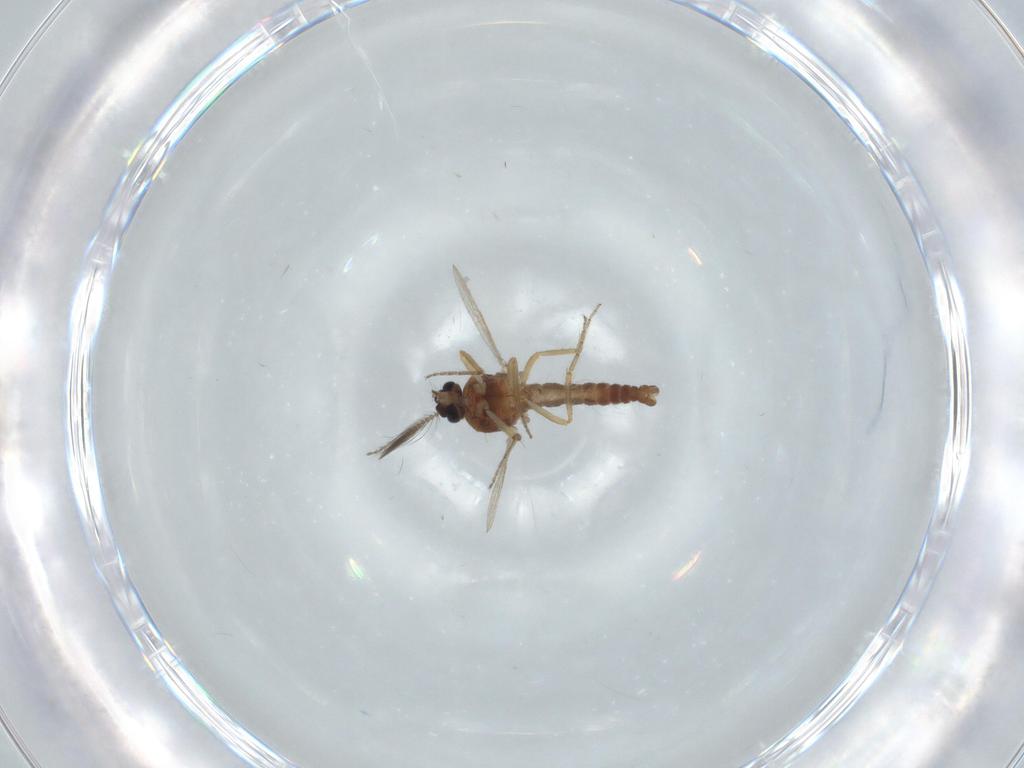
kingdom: Animalia
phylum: Arthropoda
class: Insecta
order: Diptera
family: Ceratopogonidae
